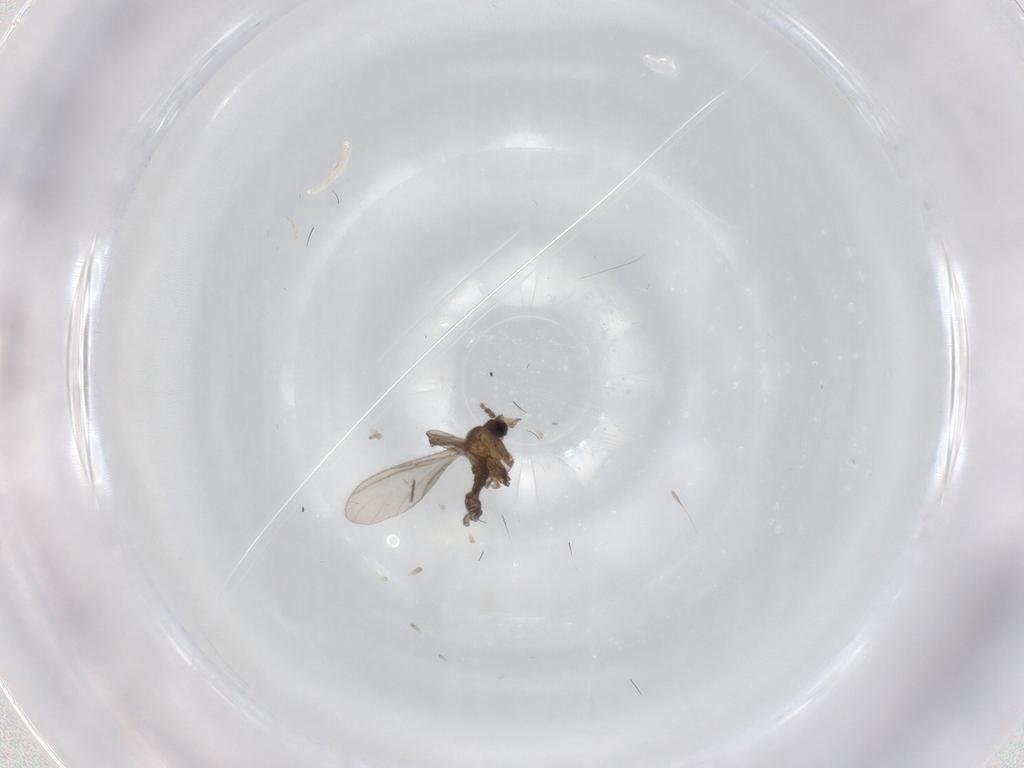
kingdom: Animalia
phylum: Arthropoda
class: Insecta
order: Diptera
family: Sciaridae
